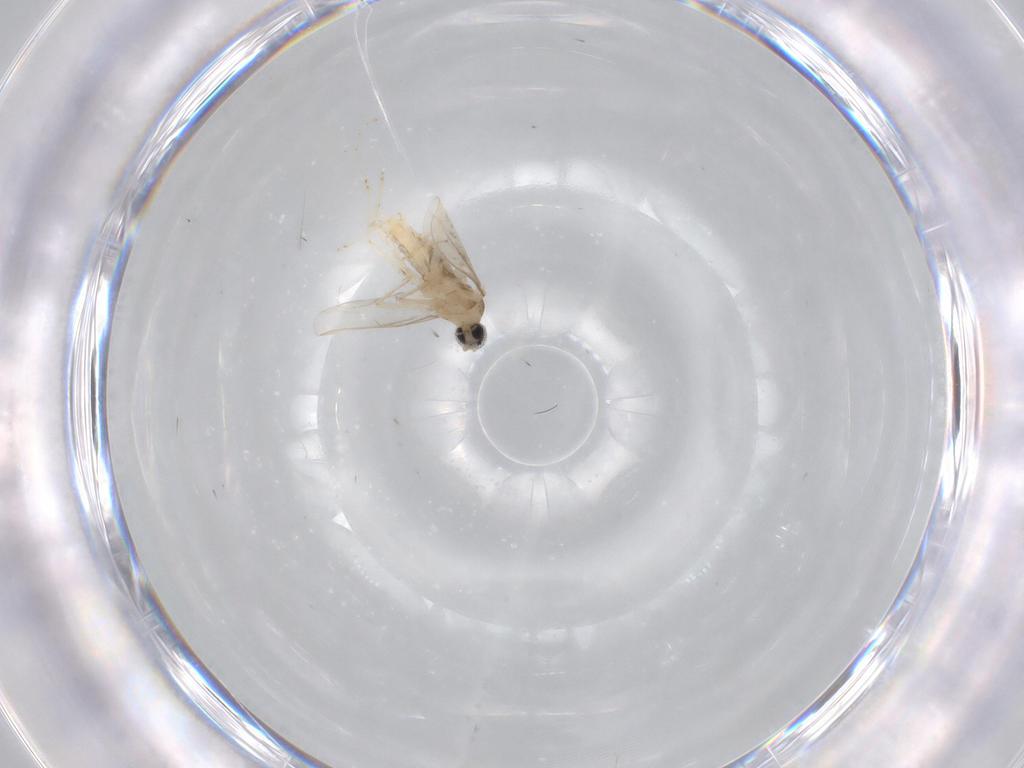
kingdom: Animalia
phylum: Arthropoda
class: Insecta
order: Diptera
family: Cecidomyiidae
